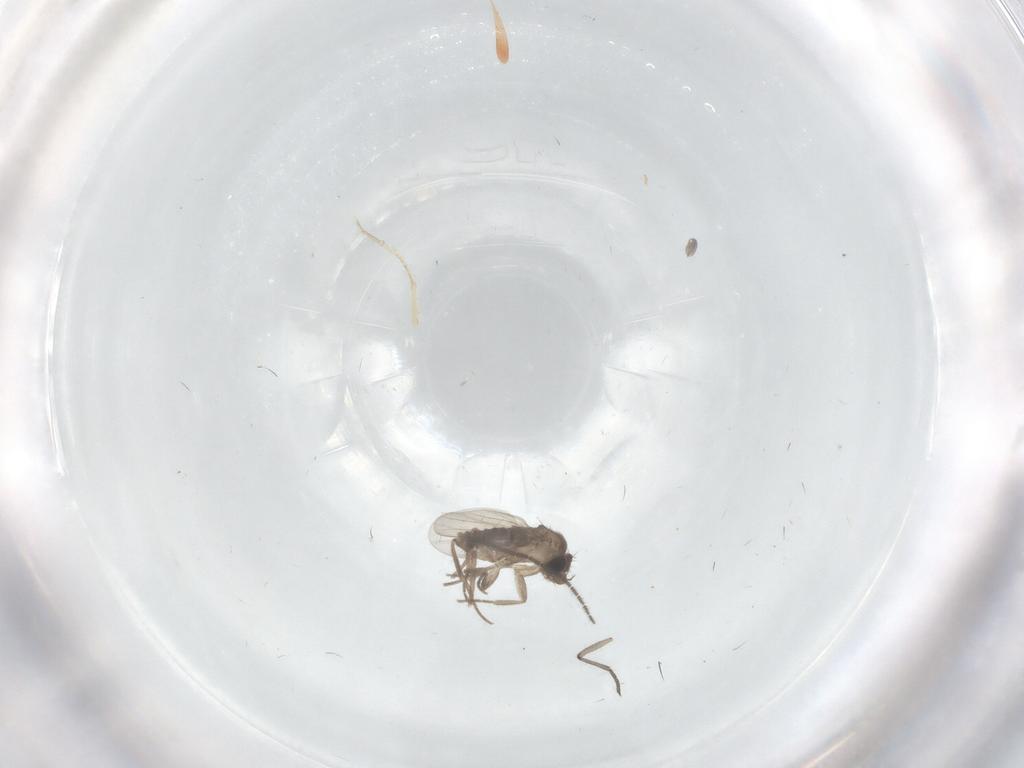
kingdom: Animalia
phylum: Arthropoda
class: Insecta
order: Diptera
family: Sciaridae
